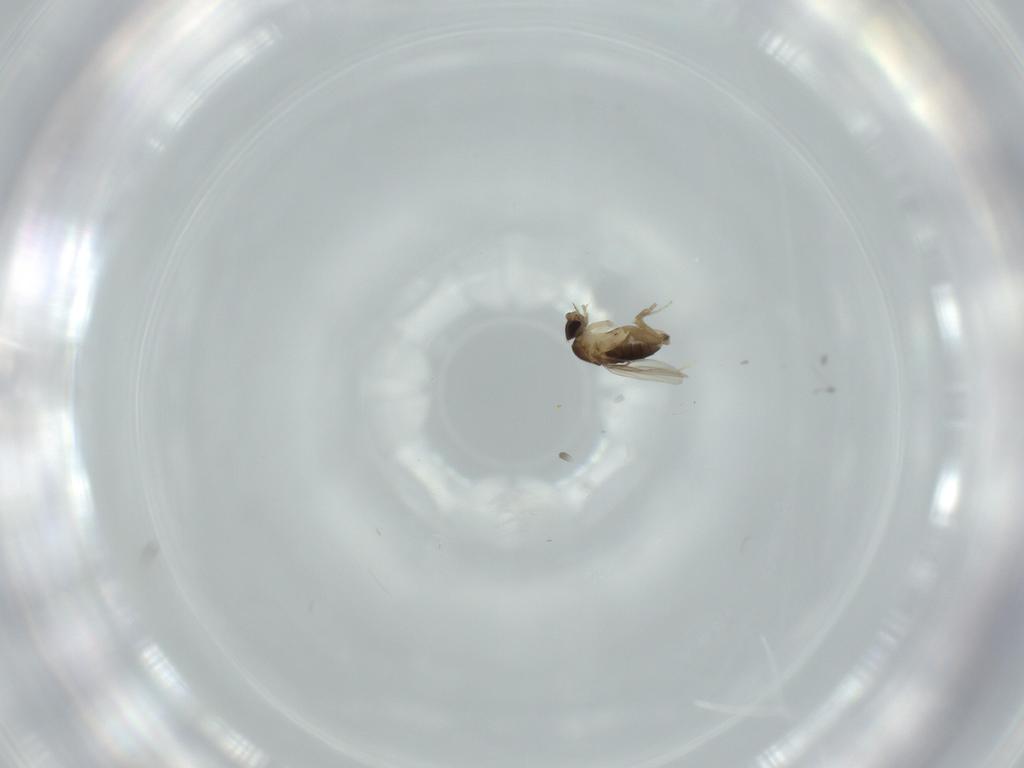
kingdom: Animalia
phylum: Arthropoda
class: Insecta
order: Diptera
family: Phoridae
